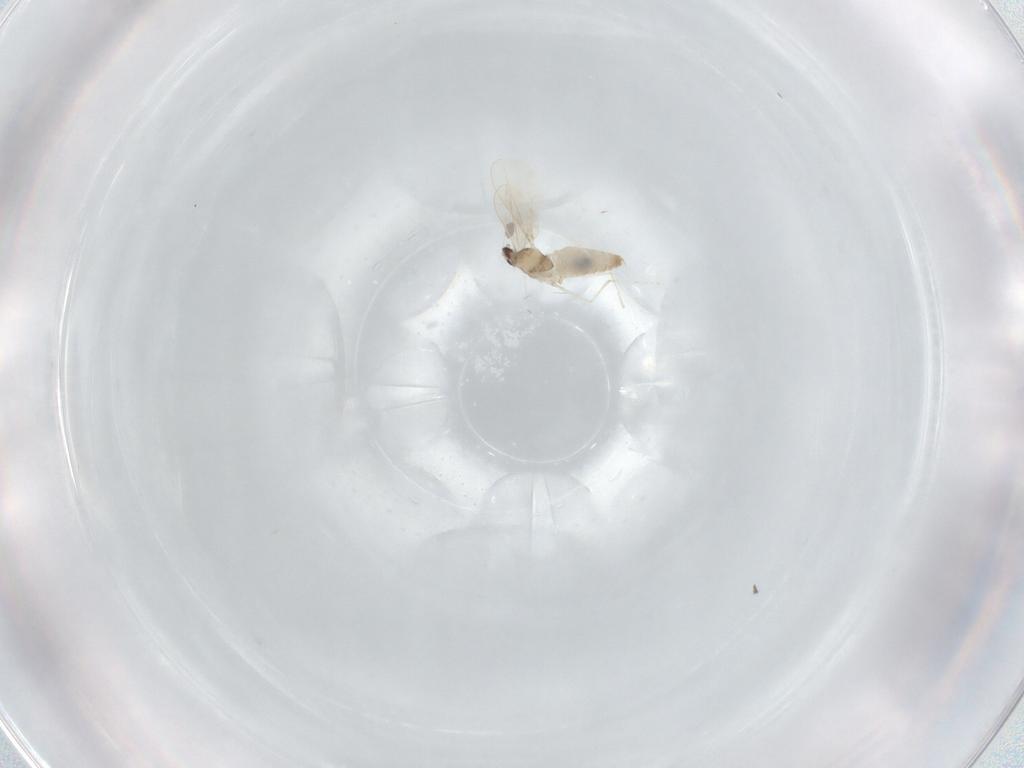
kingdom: Animalia
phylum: Arthropoda
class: Insecta
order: Diptera
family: Cecidomyiidae
